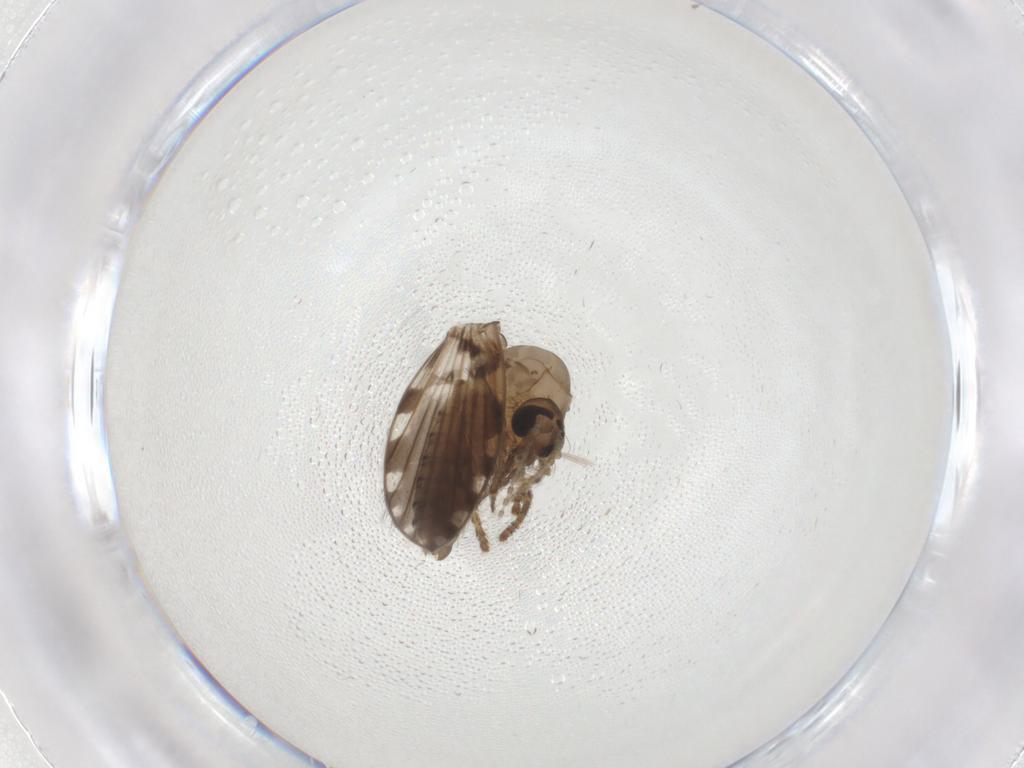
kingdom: Animalia
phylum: Arthropoda
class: Insecta
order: Diptera
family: Psychodidae
